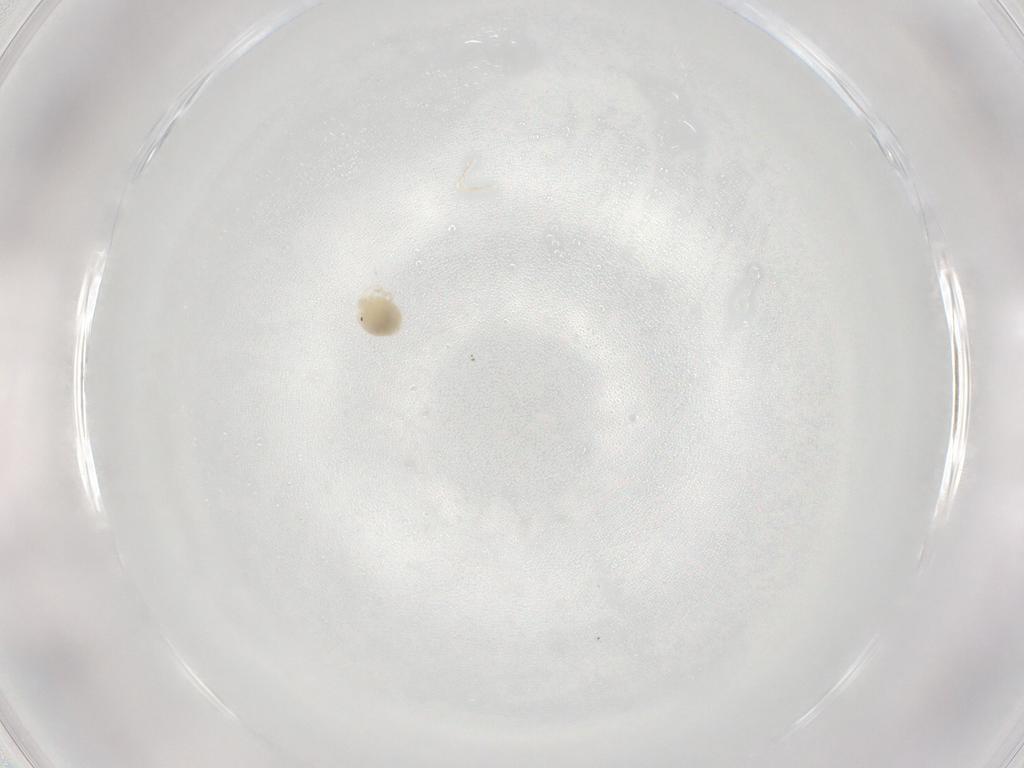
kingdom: Animalia
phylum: Arthropoda
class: Arachnida
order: Trombidiformes
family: Lebertiidae
